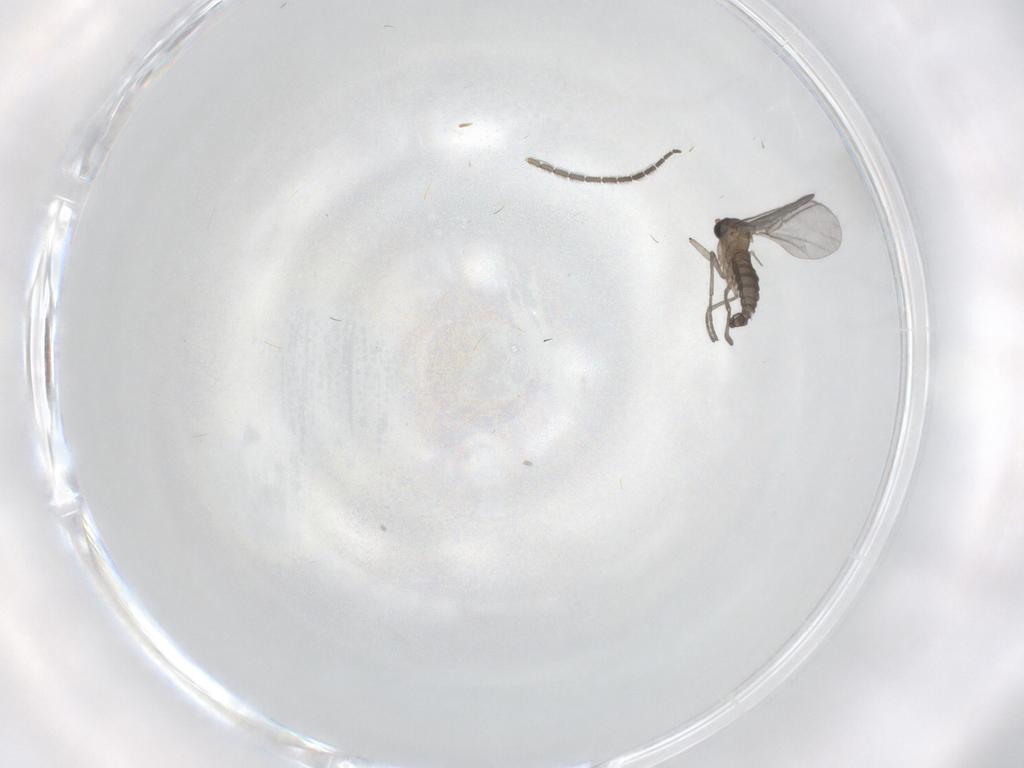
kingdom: Animalia
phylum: Arthropoda
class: Insecta
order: Diptera
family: Sciaridae
